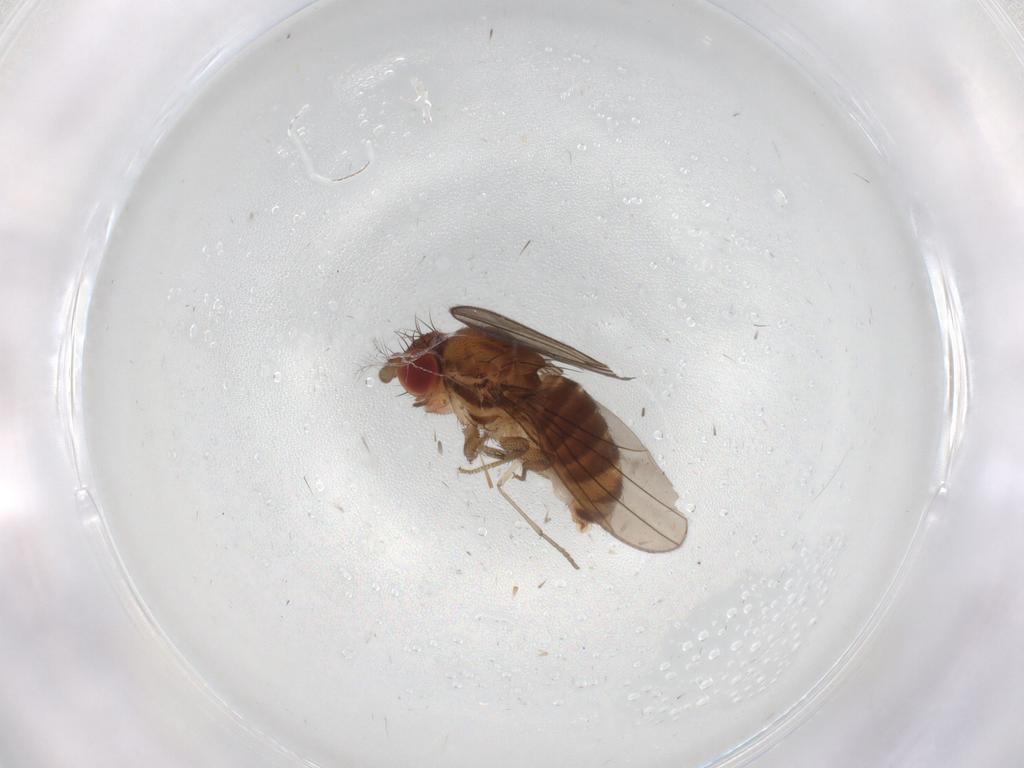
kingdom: Animalia
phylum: Arthropoda
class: Insecta
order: Diptera
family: Drosophilidae
